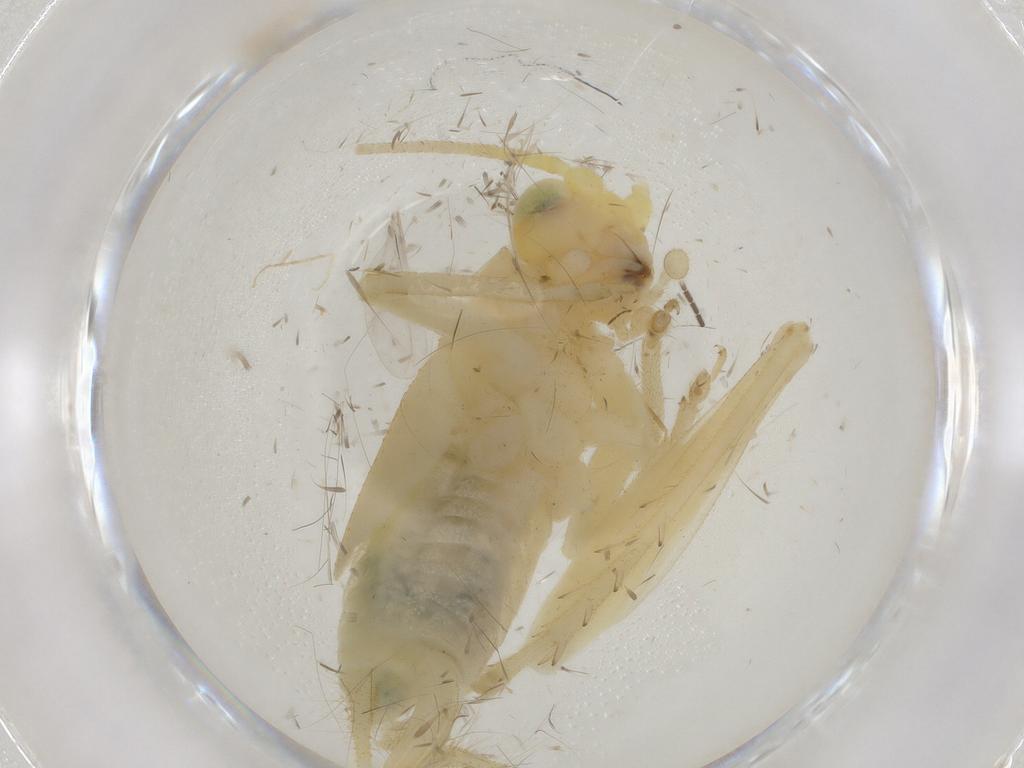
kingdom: Animalia
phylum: Arthropoda
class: Insecta
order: Orthoptera
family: Trigonidiidae
